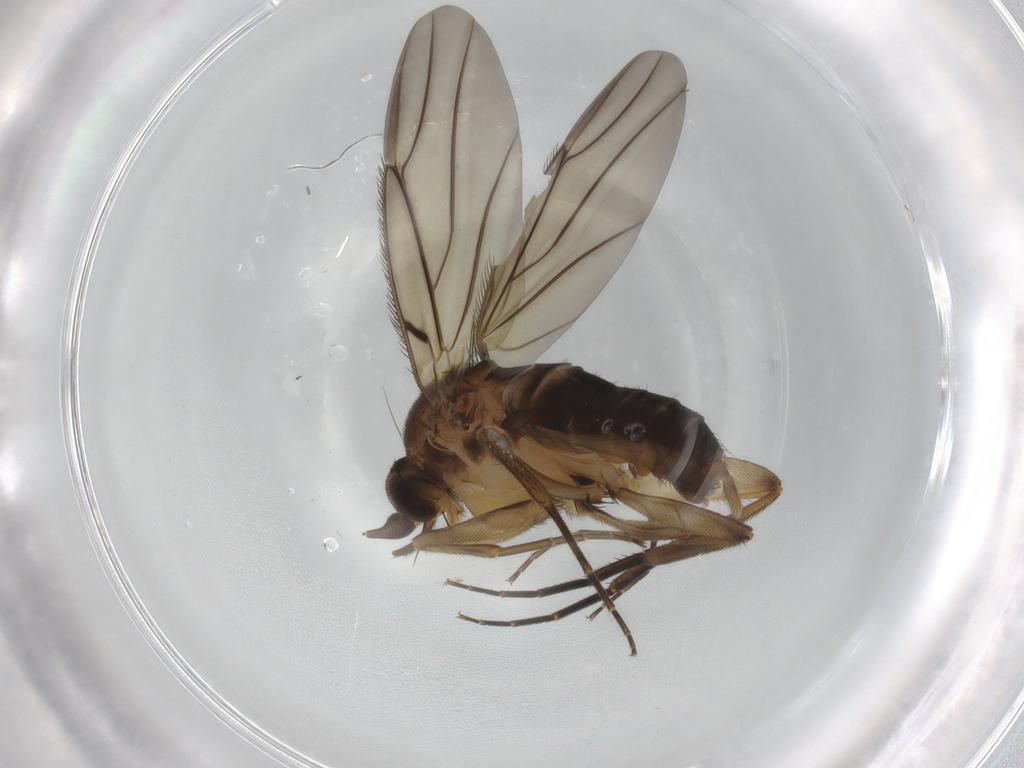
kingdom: Animalia
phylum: Arthropoda
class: Insecta
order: Diptera
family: Phoridae
